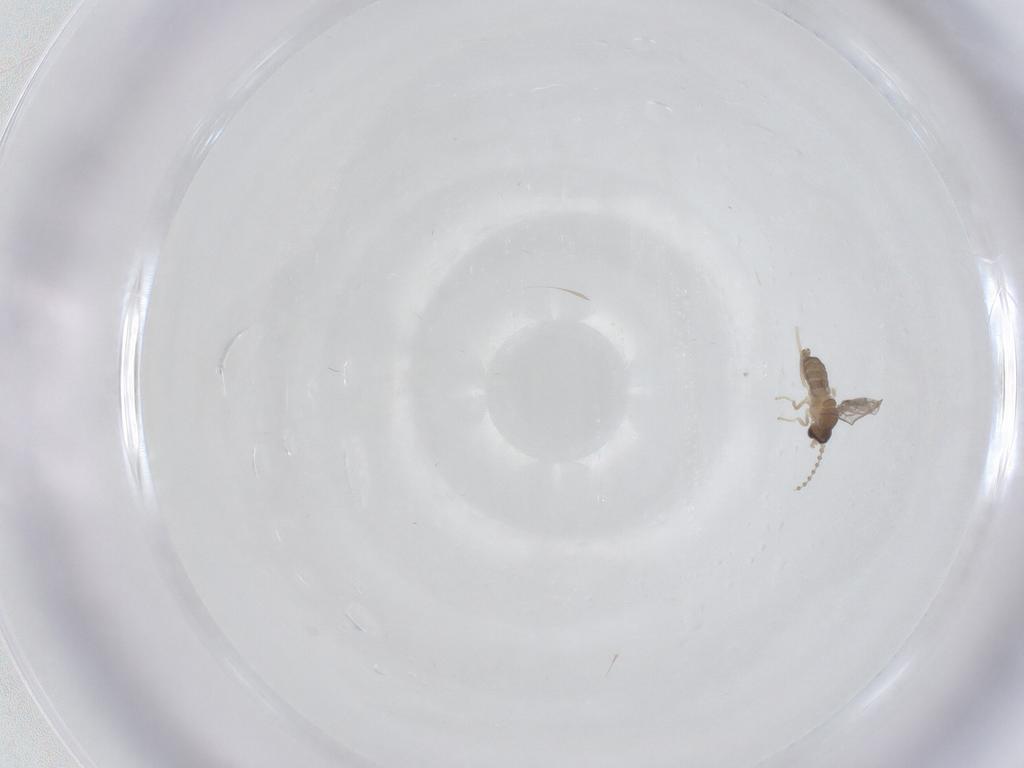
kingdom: Animalia
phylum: Arthropoda
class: Insecta
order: Diptera
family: Cecidomyiidae
